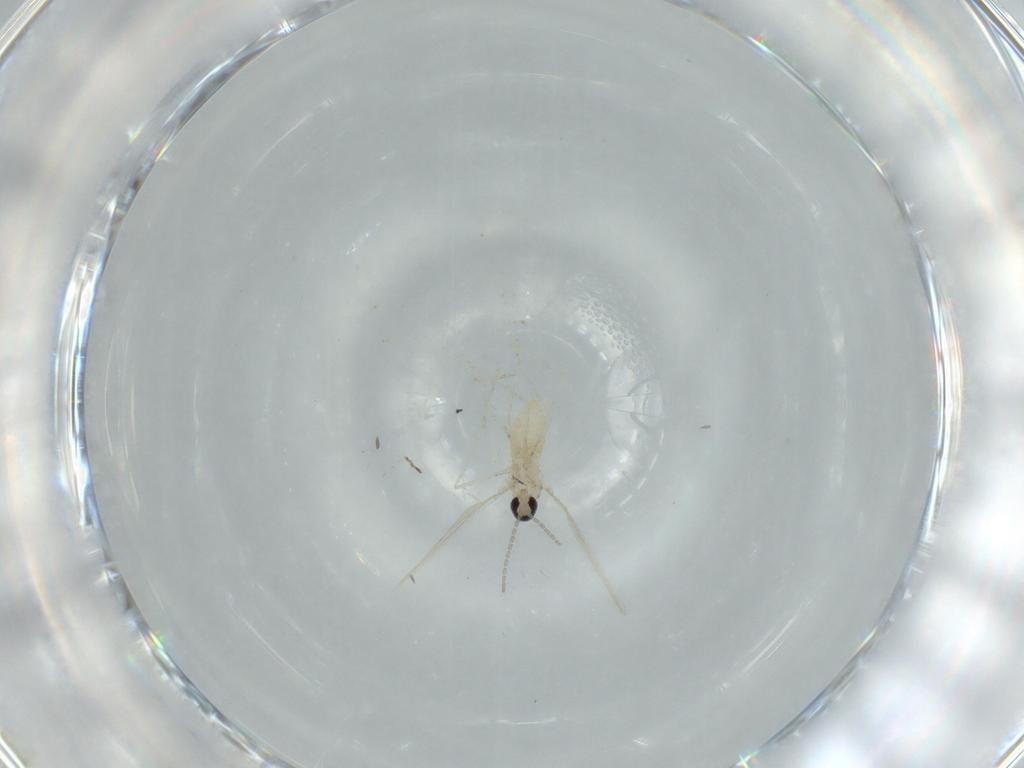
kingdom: Animalia
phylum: Arthropoda
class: Insecta
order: Diptera
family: Cecidomyiidae
